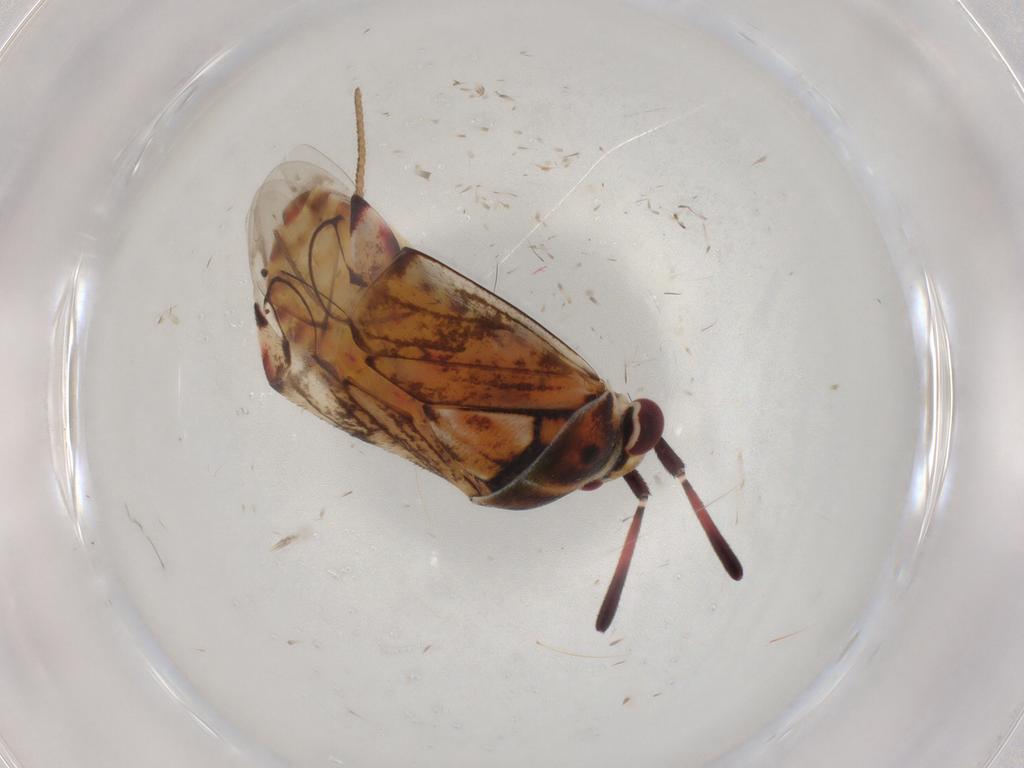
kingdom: Animalia
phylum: Arthropoda
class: Insecta
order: Hemiptera
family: Miridae
